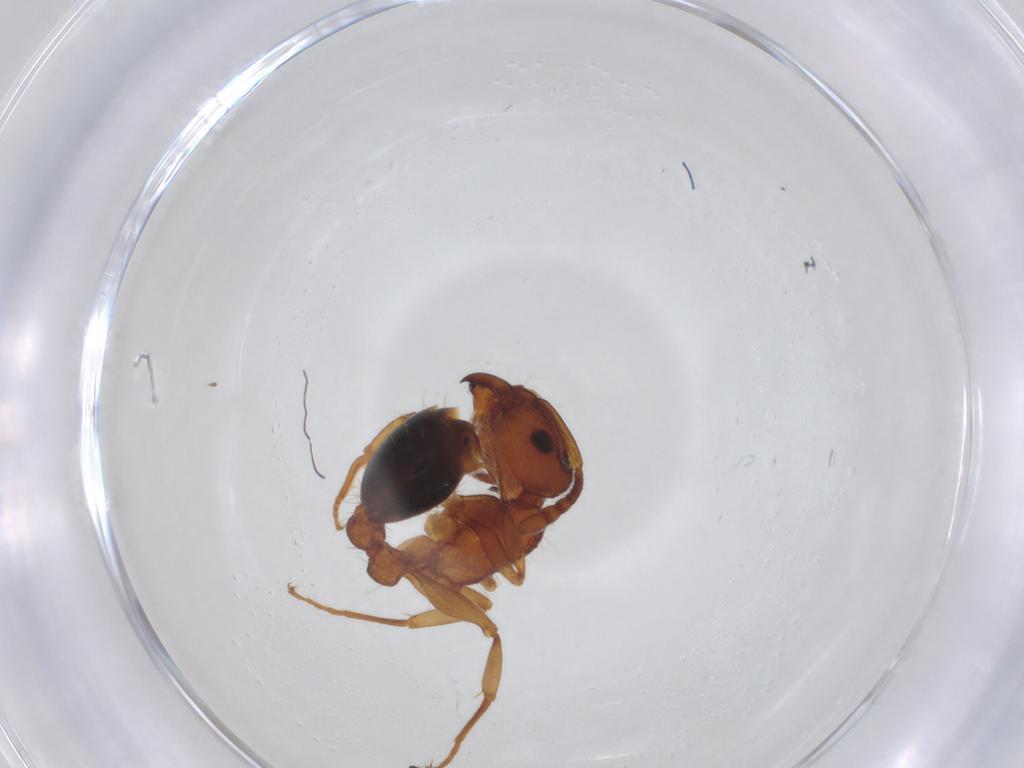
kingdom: Animalia
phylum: Arthropoda
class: Insecta
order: Hymenoptera
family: Formicidae
